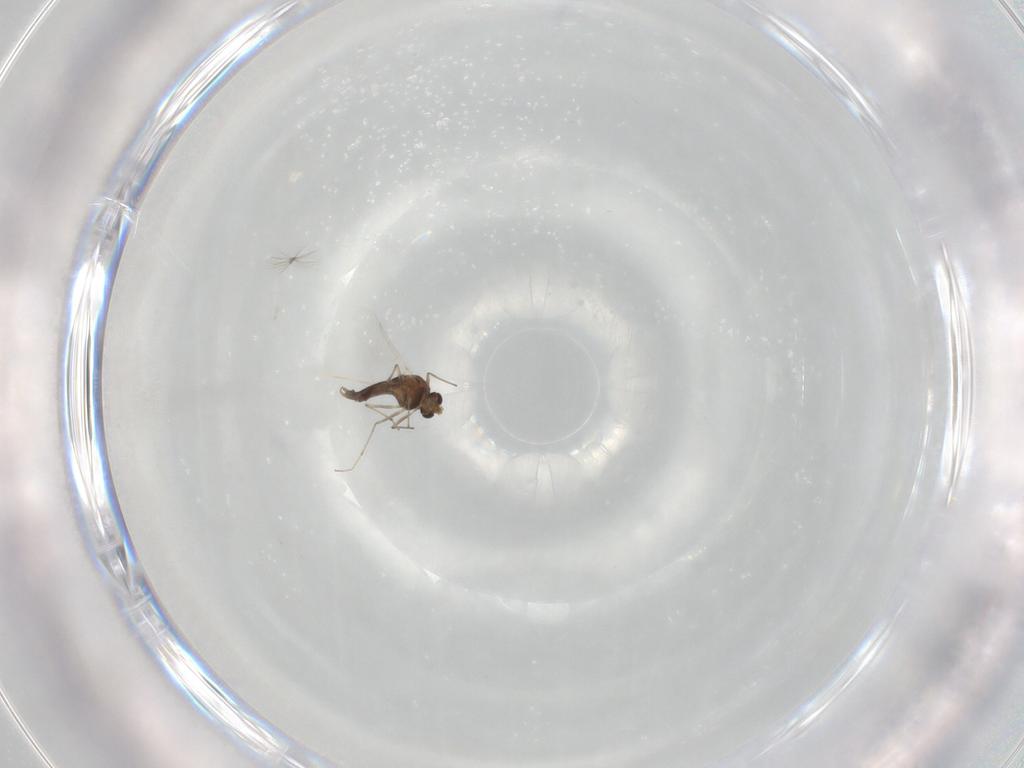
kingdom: Animalia
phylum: Arthropoda
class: Insecta
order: Diptera
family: Chironomidae
